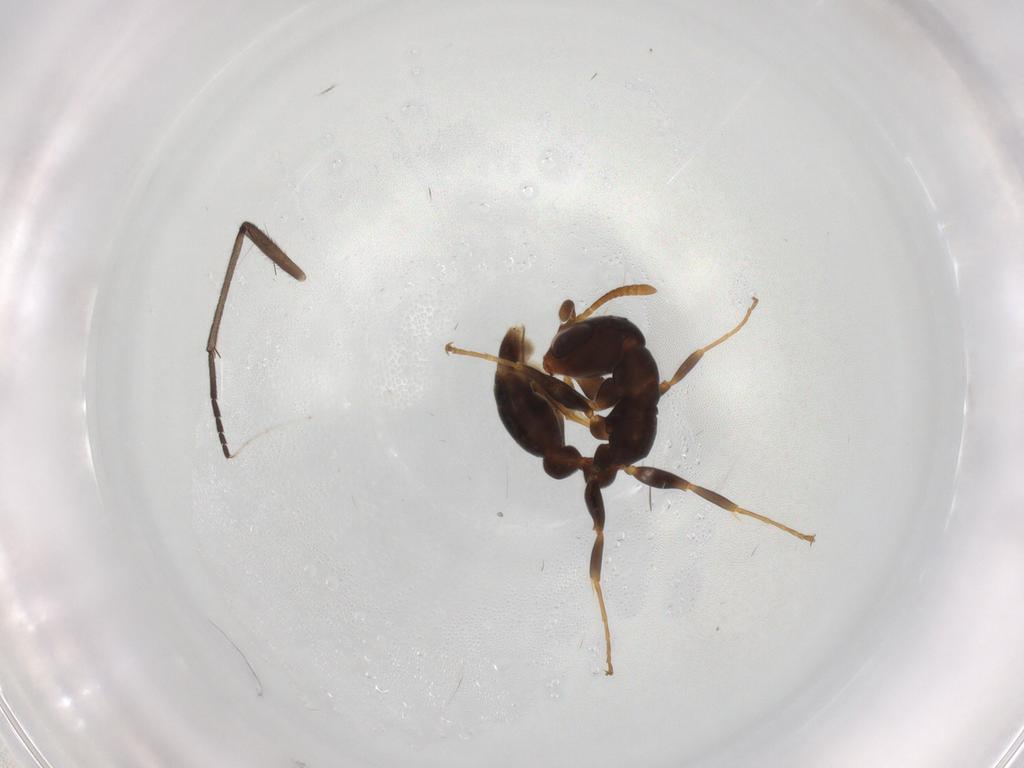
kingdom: Animalia
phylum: Arthropoda
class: Insecta
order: Hymenoptera
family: Formicidae
